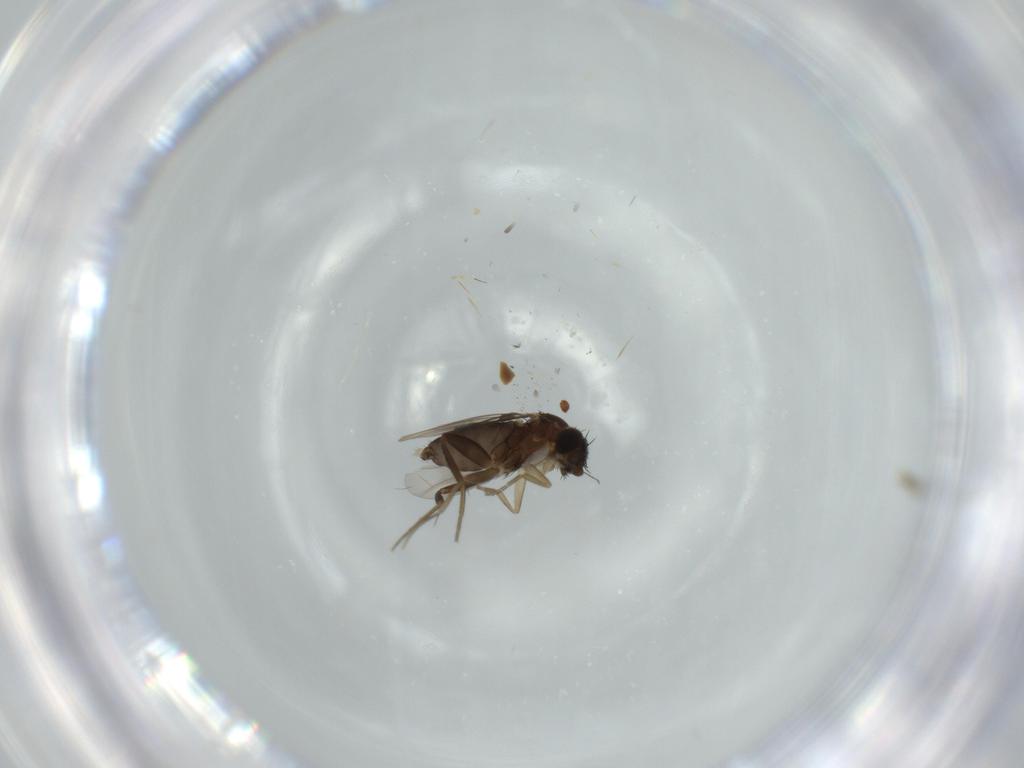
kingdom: Animalia
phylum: Arthropoda
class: Insecta
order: Diptera
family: Phoridae
